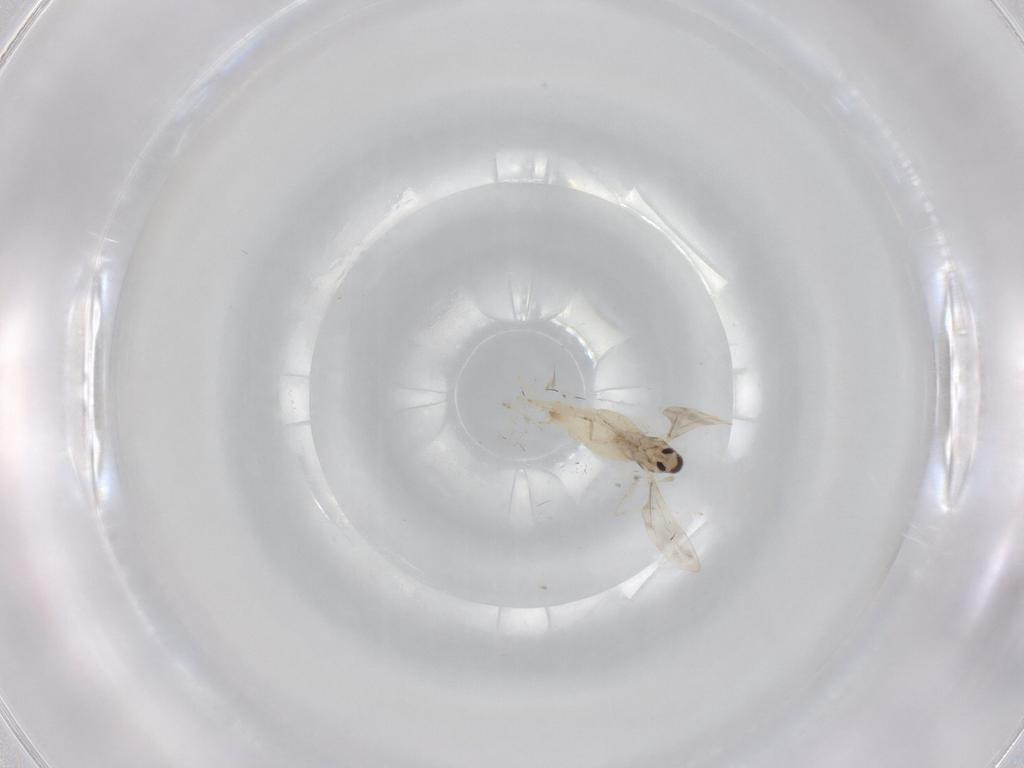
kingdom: Animalia
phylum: Arthropoda
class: Insecta
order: Diptera
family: Cecidomyiidae
